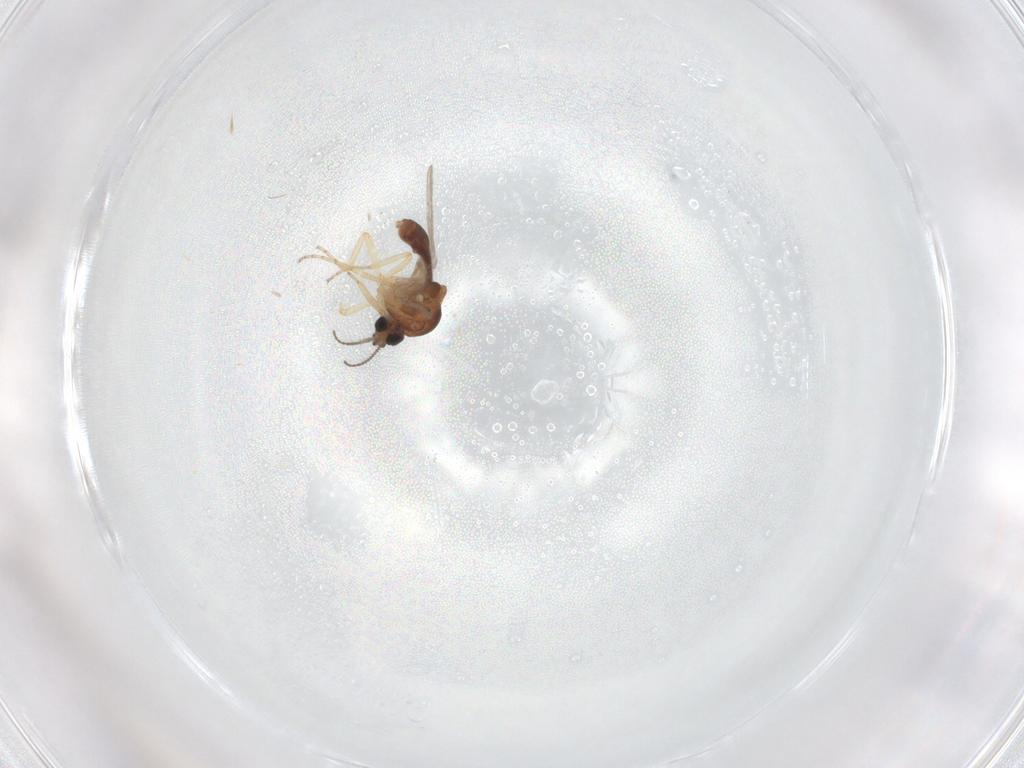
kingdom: Animalia
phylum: Arthropoda
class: Insecta
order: Diptera
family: Ceratopogonidae
